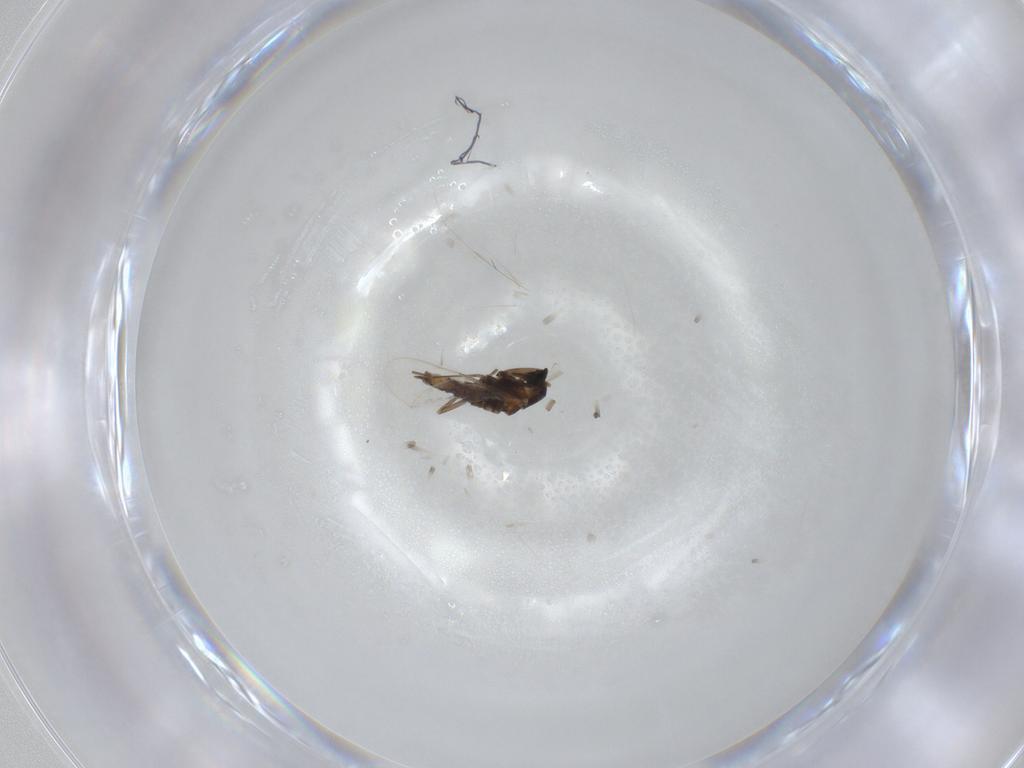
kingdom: Animalia
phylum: Arthropoda
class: Insecta
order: Diptera
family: Cecidomyiidae
